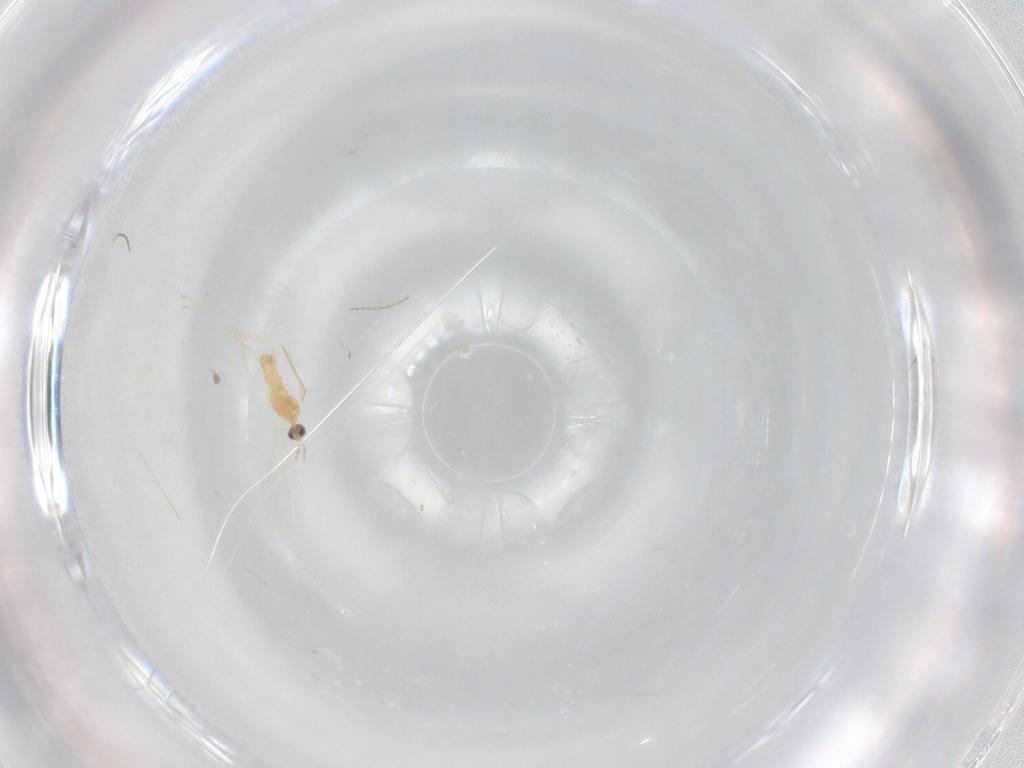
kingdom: Animalia
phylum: Arthropoda
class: Insecta
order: Diptera
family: Cecidomyiidae
